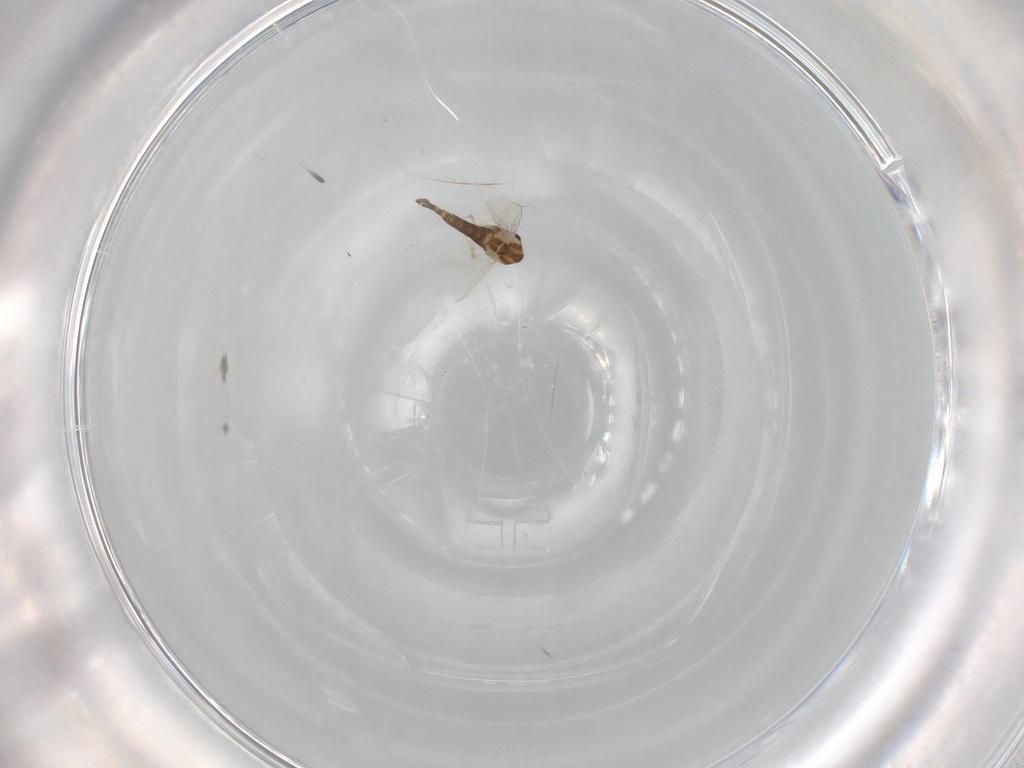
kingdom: Animalia
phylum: Arthropoda
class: Insecta
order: Diptera
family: Chironomidae
